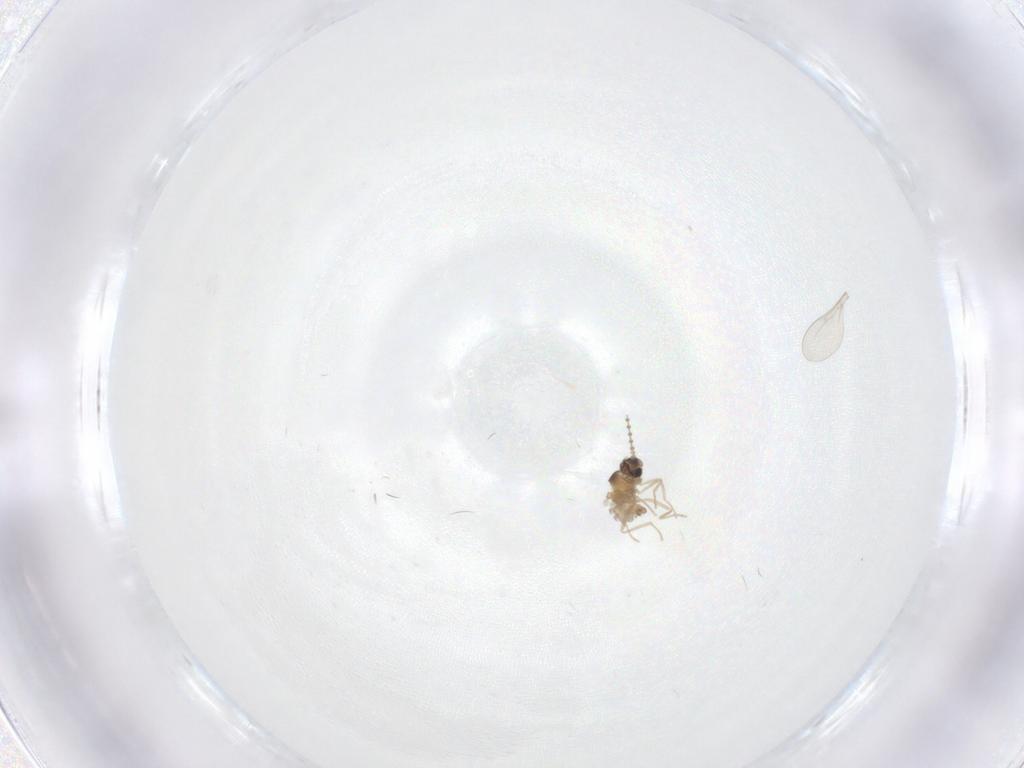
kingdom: Animalia
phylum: Arthropoda
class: Insecta
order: Diptera
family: Cecidomyiidae
